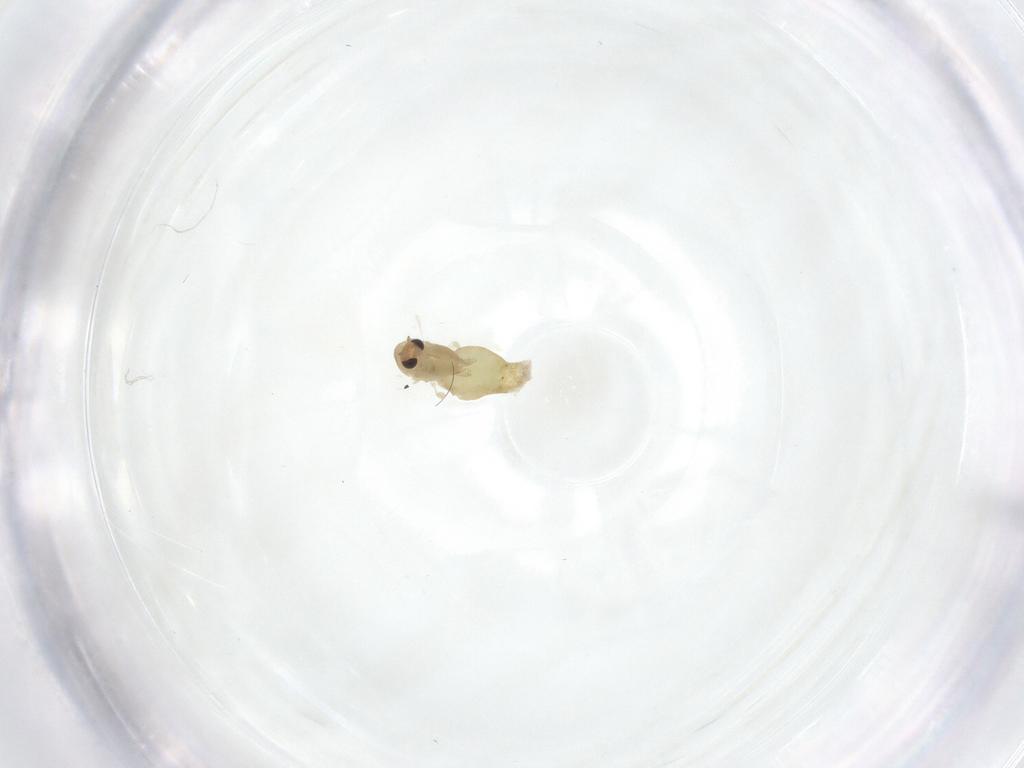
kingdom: Animalia
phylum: Arthropoda
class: Insecta
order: Diptera
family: Chironomidae
